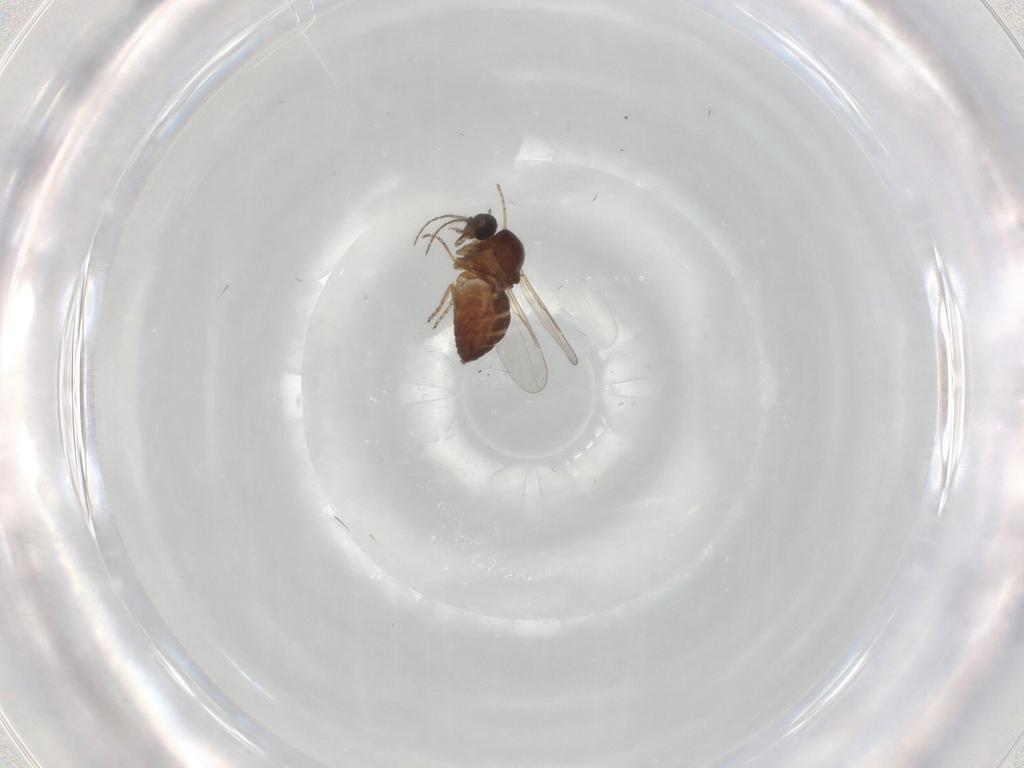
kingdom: Animalia
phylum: Arthropoda
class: Insecta
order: Diptera
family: Ceratopogonidae
